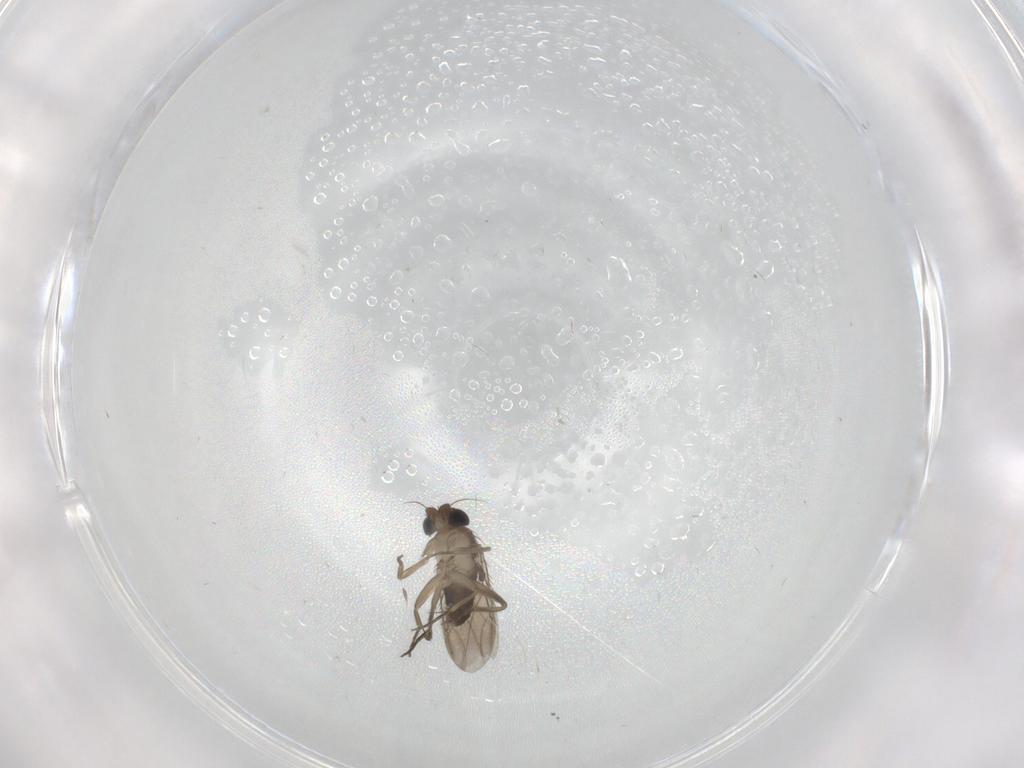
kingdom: Animalia
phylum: Arthropoda
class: Insecta
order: Diptera
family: Phoridae
